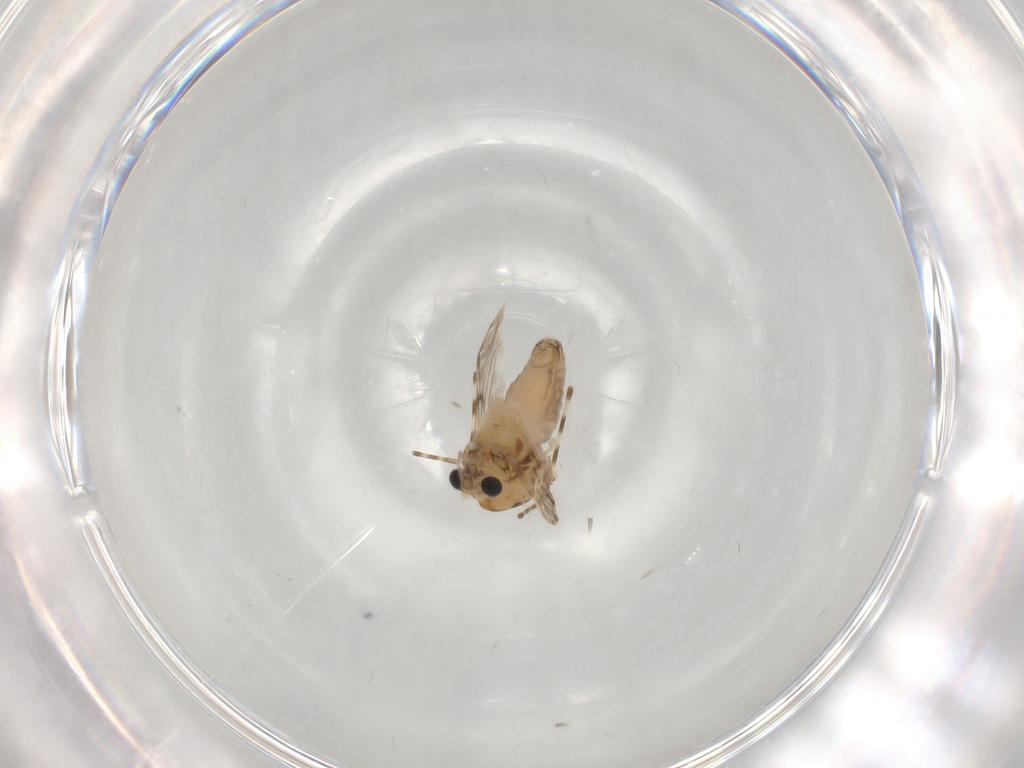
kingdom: Animalia
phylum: Arthropoda
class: Insecta
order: Diptera
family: Chironomidae
